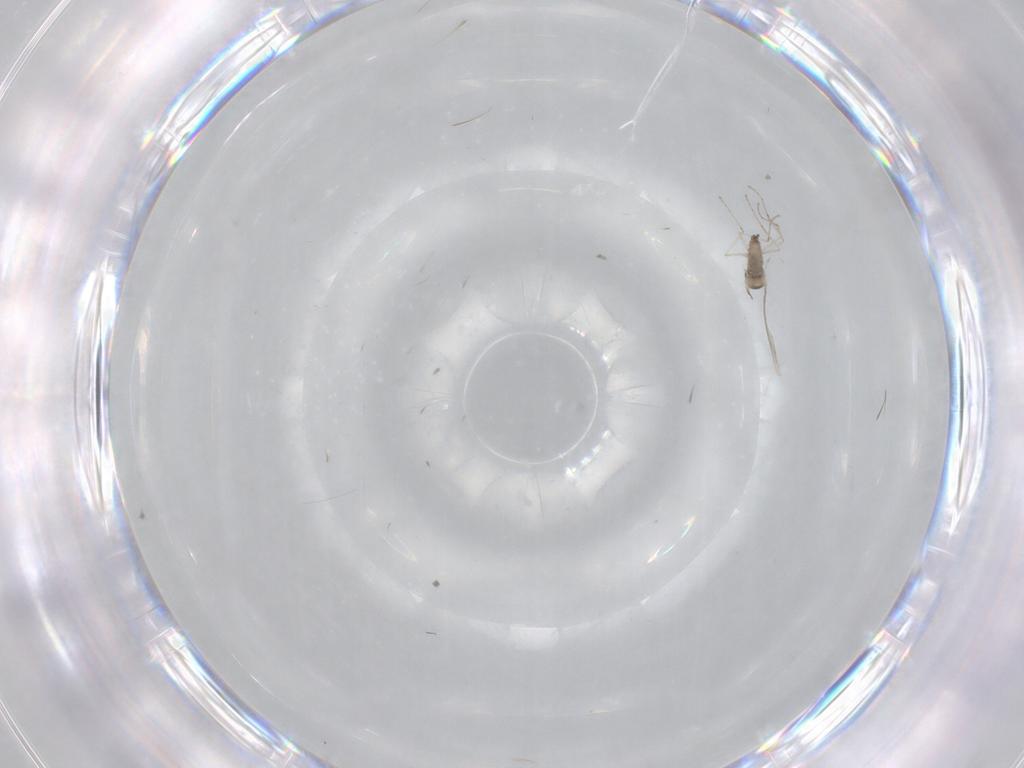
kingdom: Animalia
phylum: Arthropoda
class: Insecta
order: Diptera
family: Cecidomyiidae
